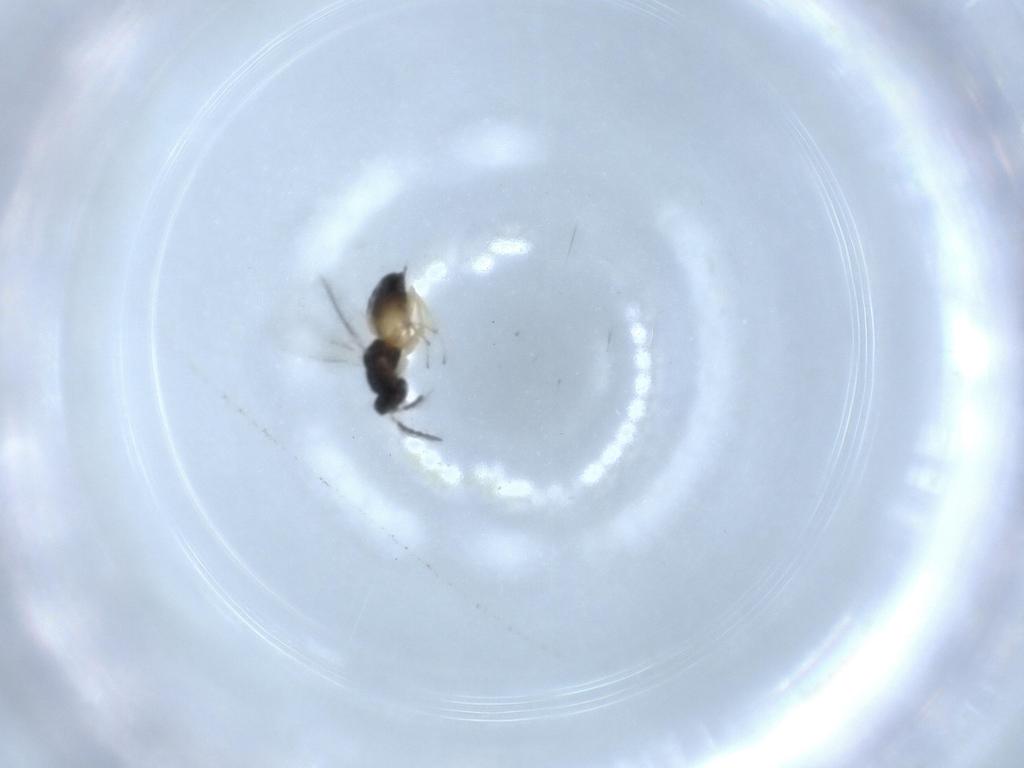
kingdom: Animalia
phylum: Arthropoda
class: Insecta
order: Hymenoptera
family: Eulophidae
